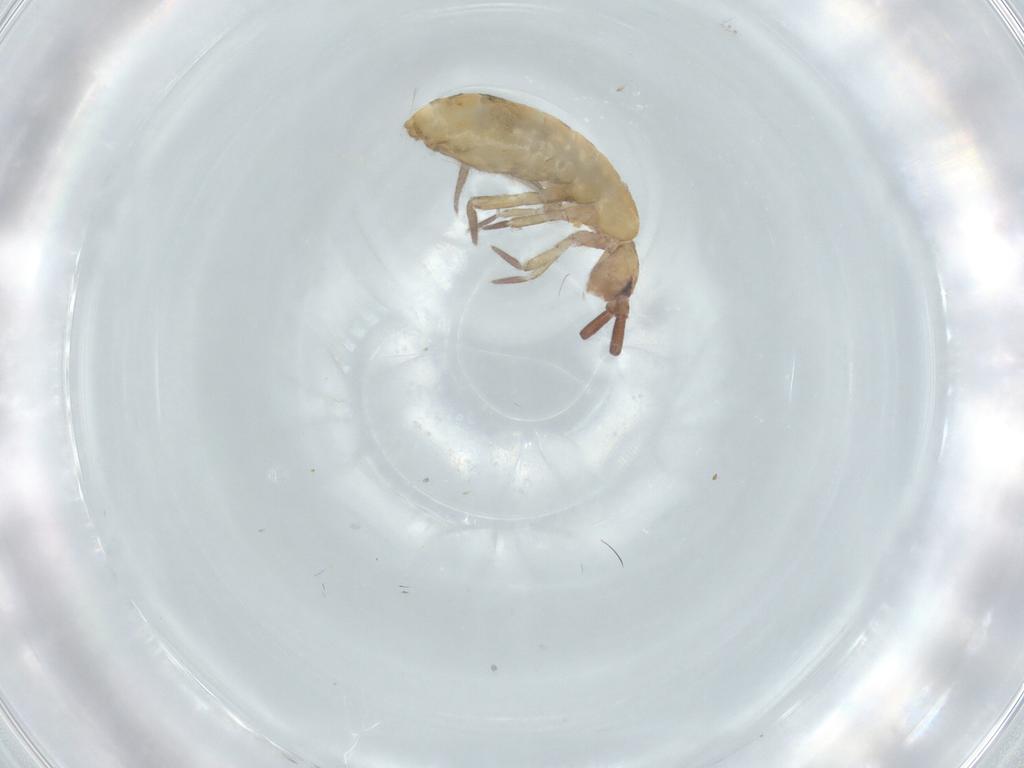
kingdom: Animalia
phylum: Arthropoda
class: Collembola
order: Entomobryomorpha
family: Tomoceridae
